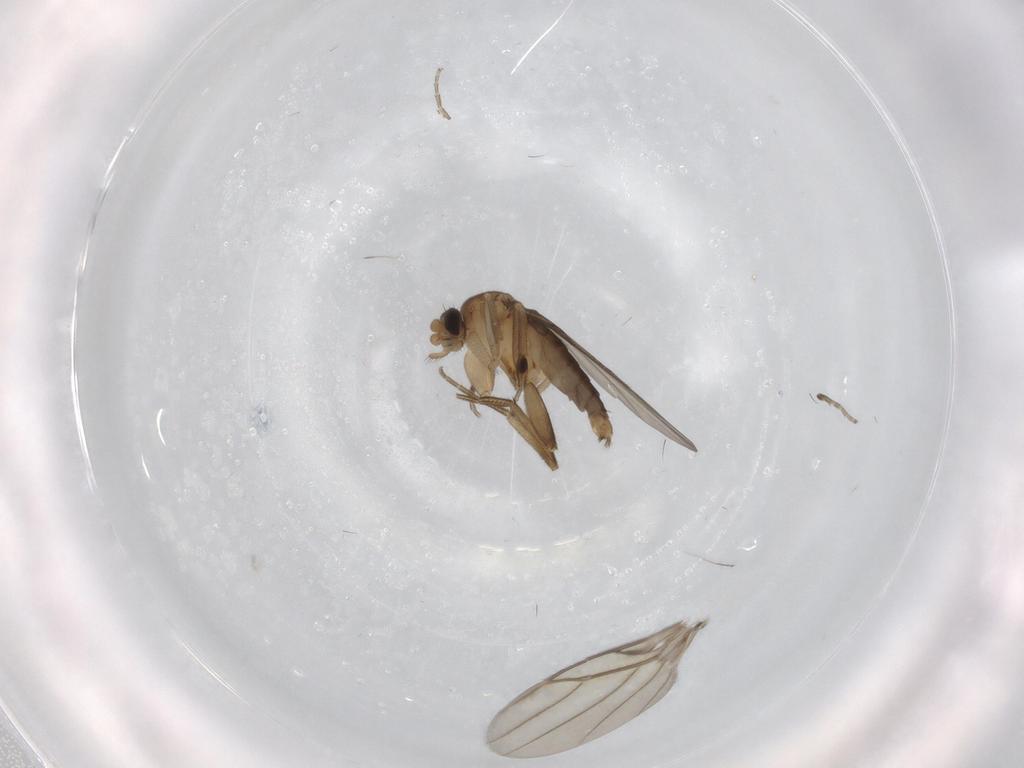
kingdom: Animalia
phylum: Arthropoda
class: Insecta
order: Diptera
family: Phoridae
